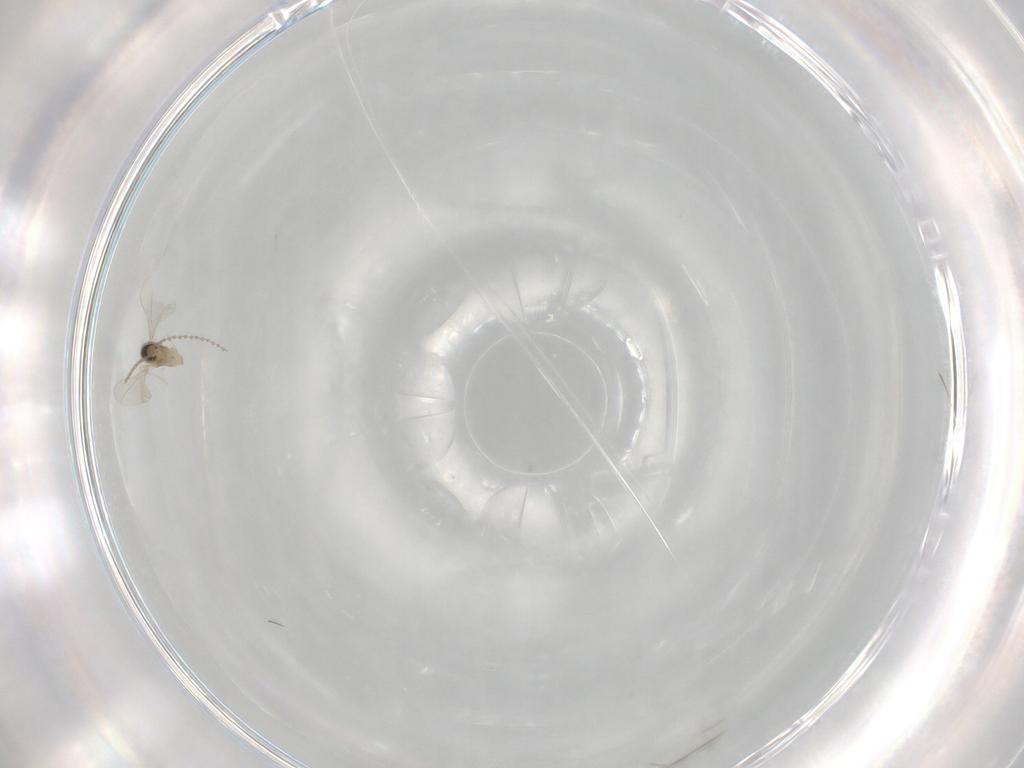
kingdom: Animalia
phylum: Arthropoda
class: Insecta
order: Diptera
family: Cecidomyiidae
